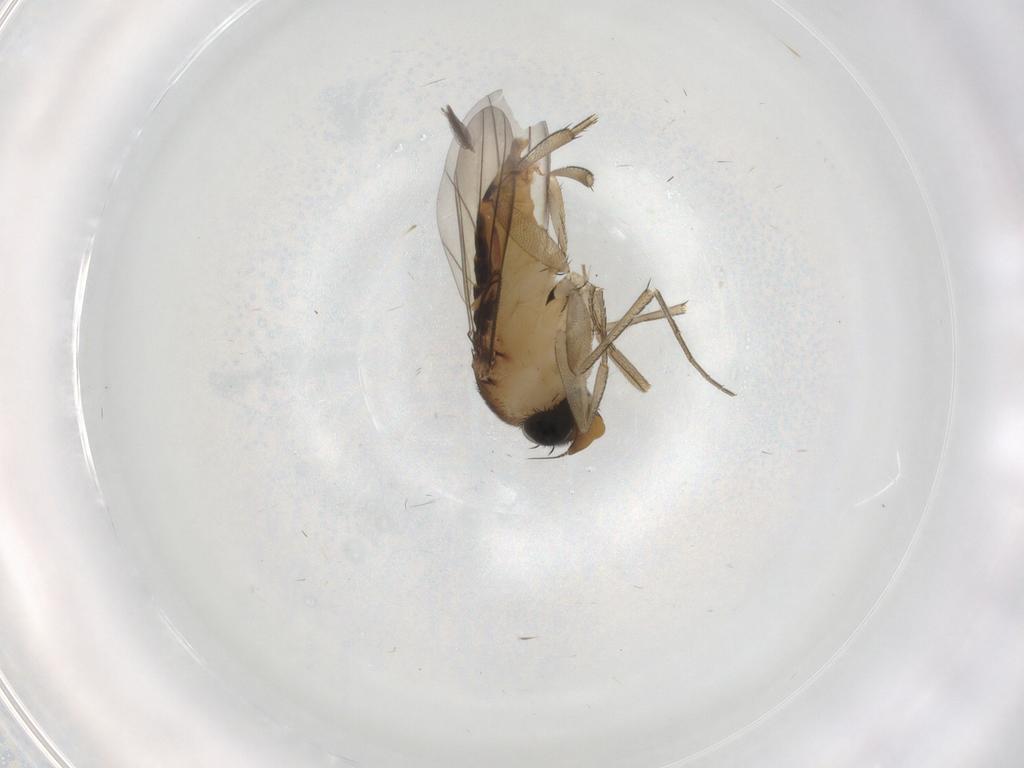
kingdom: Animalia
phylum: Arthropoda
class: Insecta
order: Diptera
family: Phoridae
